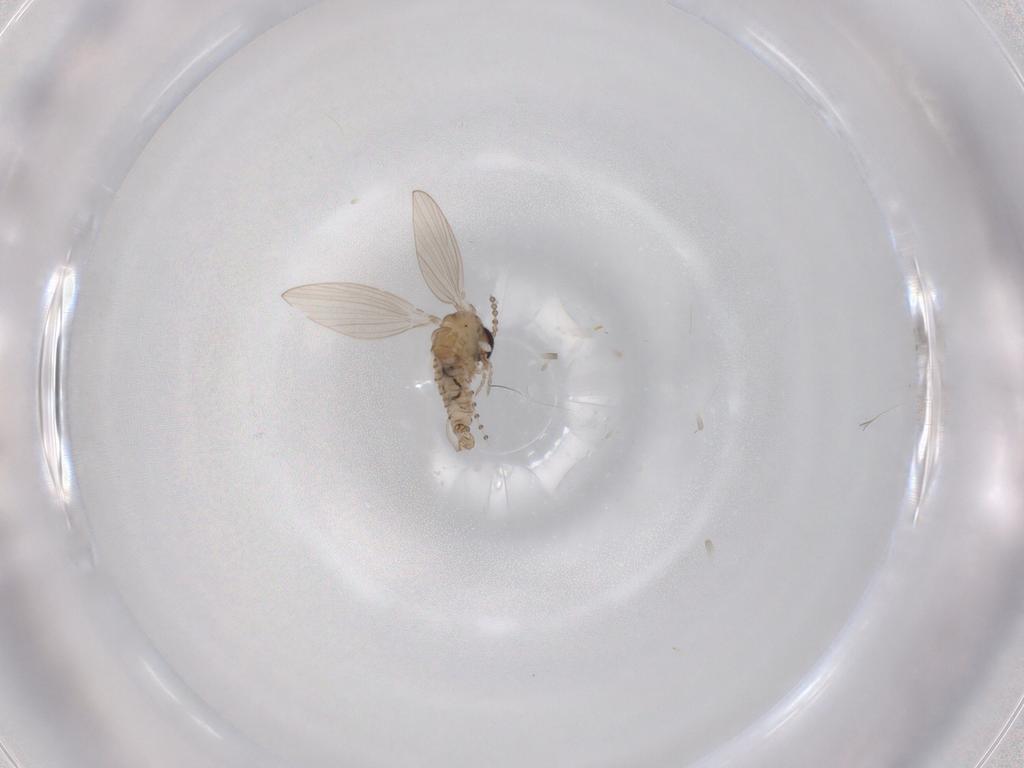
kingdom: Animalia
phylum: Arthropoda
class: Insecta
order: Diptera
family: Psychodidae
